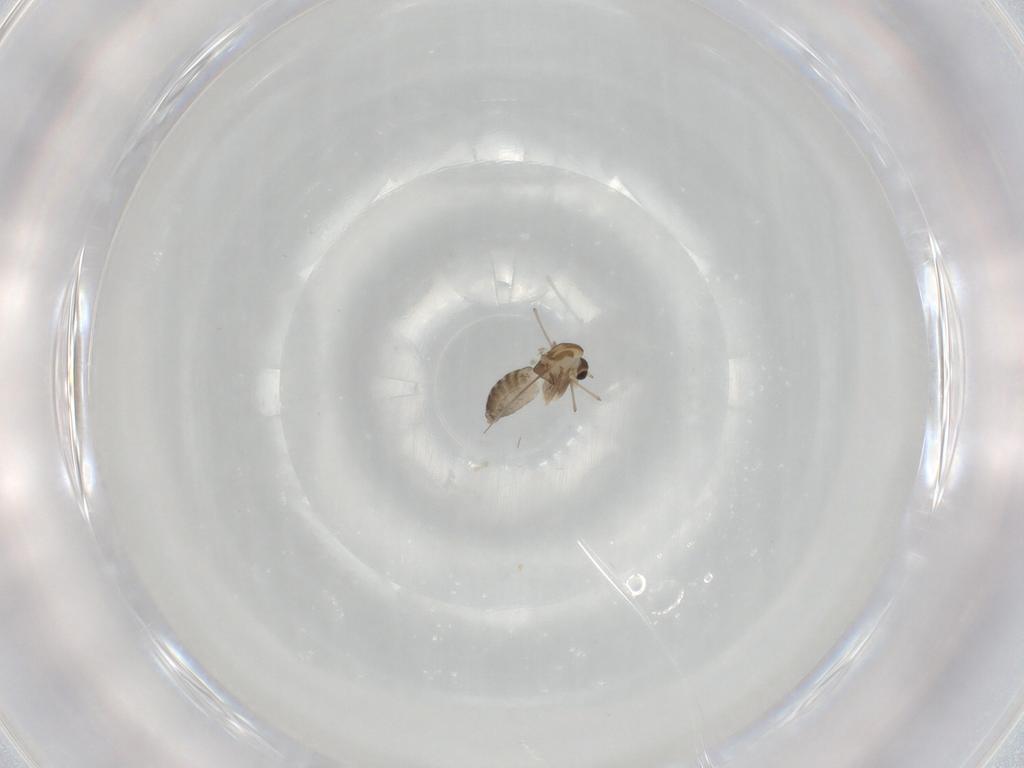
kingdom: Animalia
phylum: Arthropoda
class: Insecta
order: Diptera
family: Chironomidae
